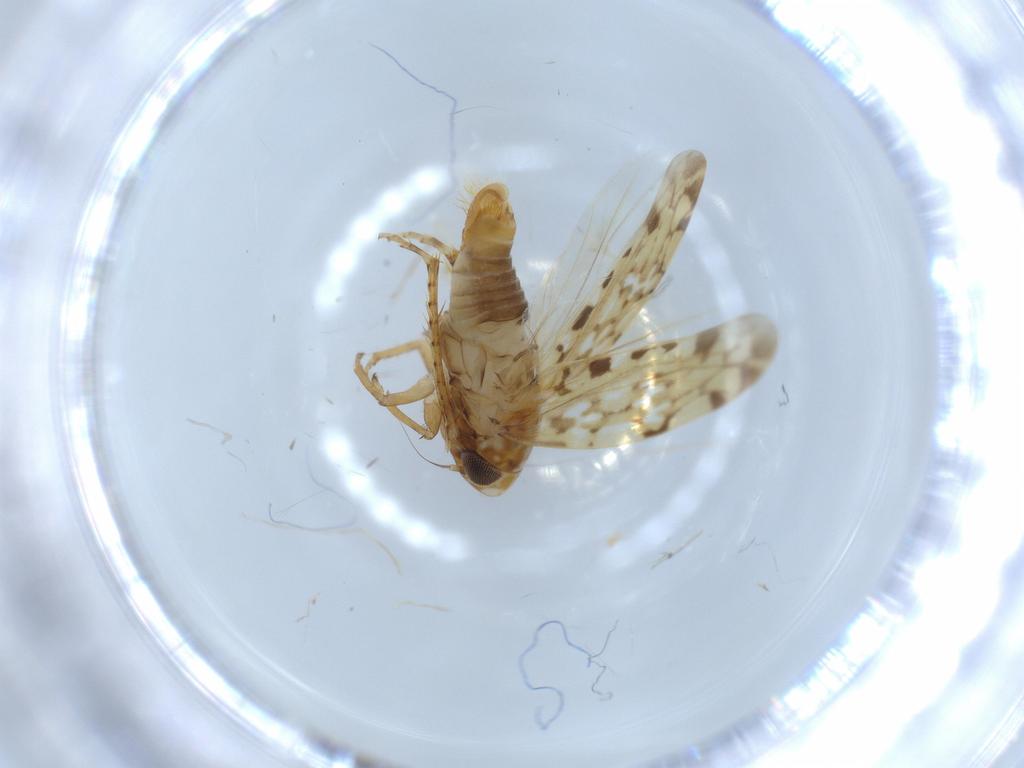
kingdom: Animalia
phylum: Arthropoda
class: Insecta
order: Hemiptera
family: Cicadellidae
